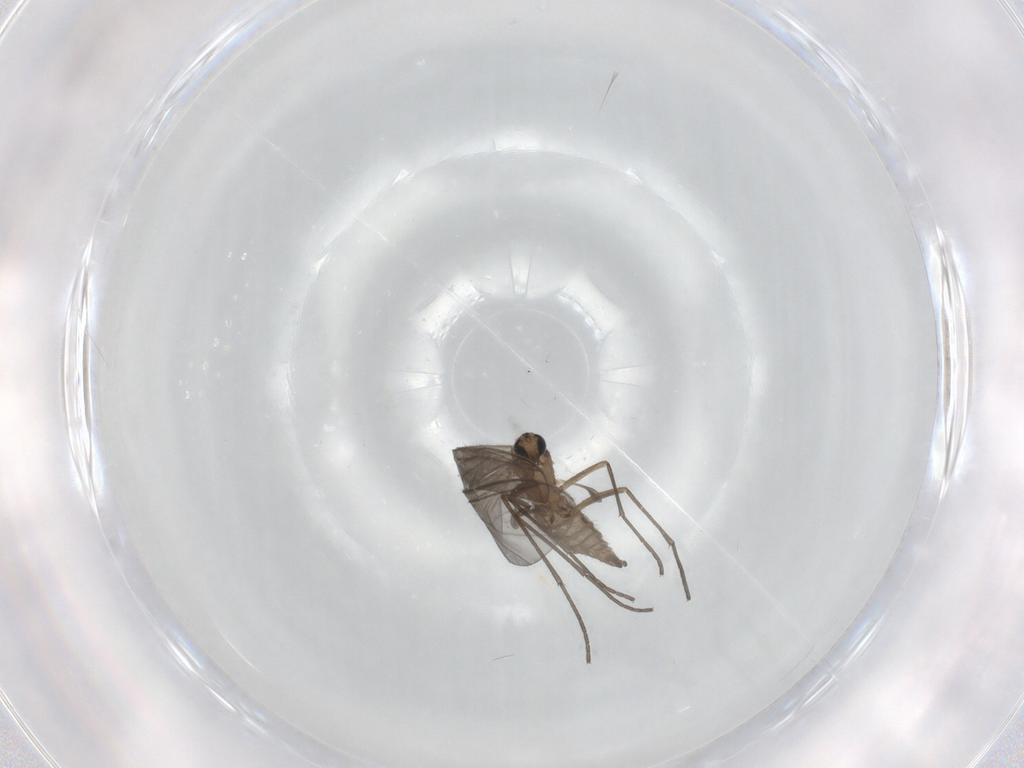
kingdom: Animalia
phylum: Arthropoda
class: Insecta
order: Diptera
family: Sciaridae
